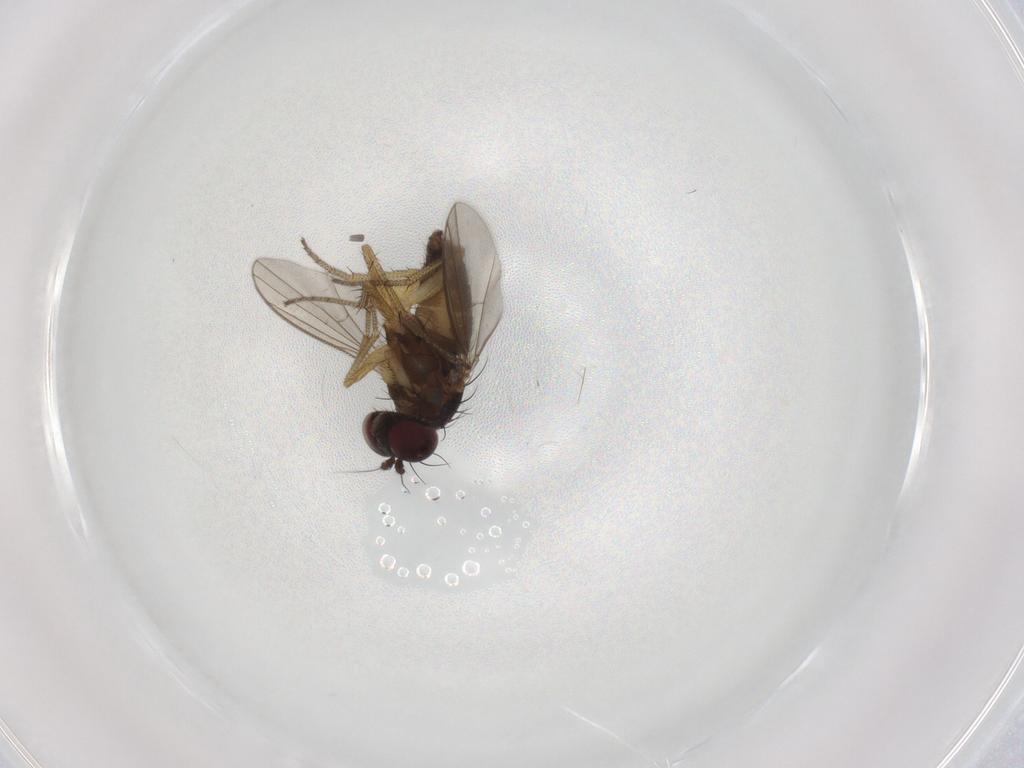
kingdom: Animalia
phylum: Arthropoda
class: Insecta
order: Diptera
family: Dolichopodidae
